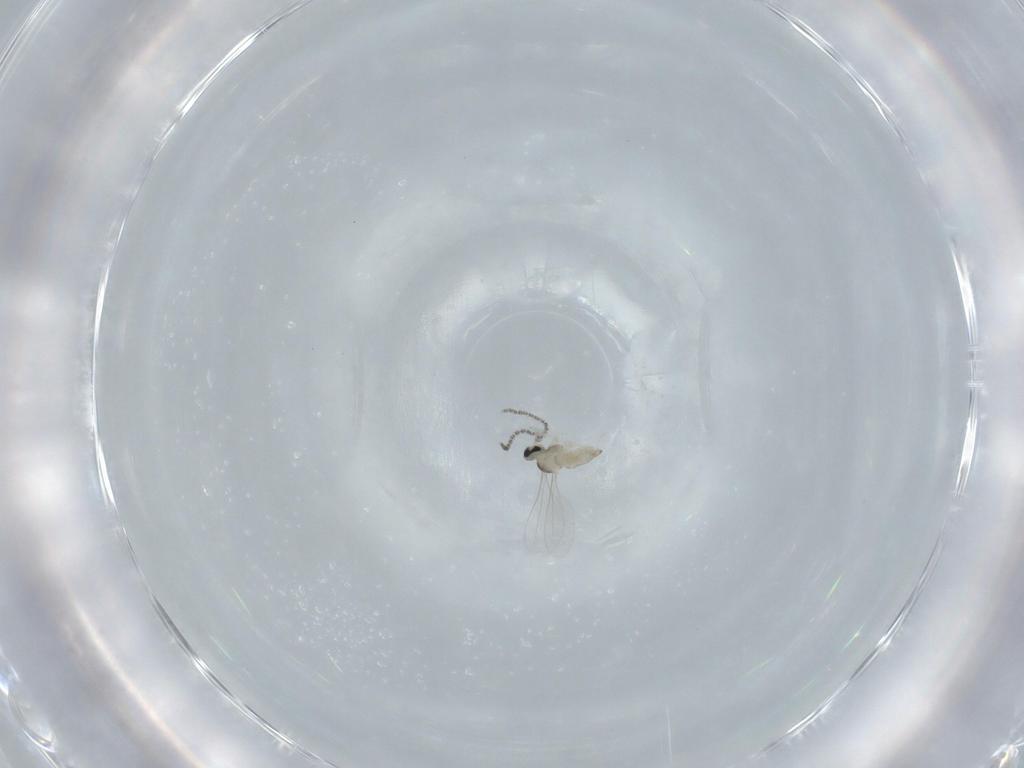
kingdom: Animalia
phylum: Arthropoda
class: Insecta
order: Diptera
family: Cecidomyiidae
